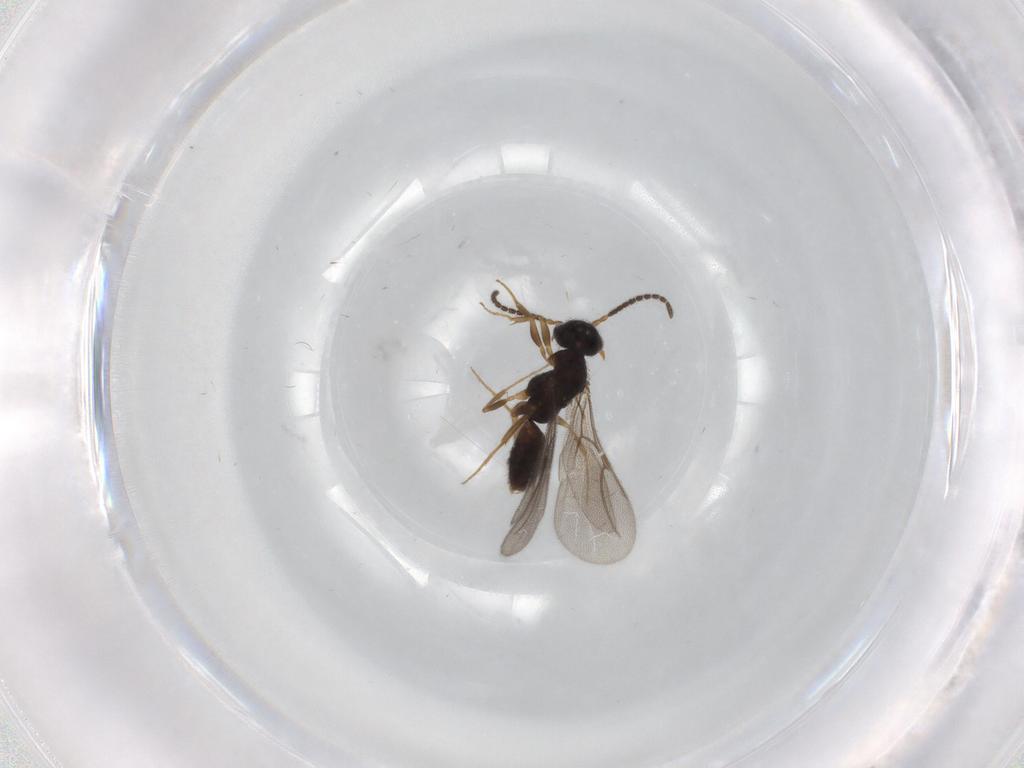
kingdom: Animalia
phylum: Arthropoda
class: Insecta
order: Hymenoptera
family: Bethylidae
